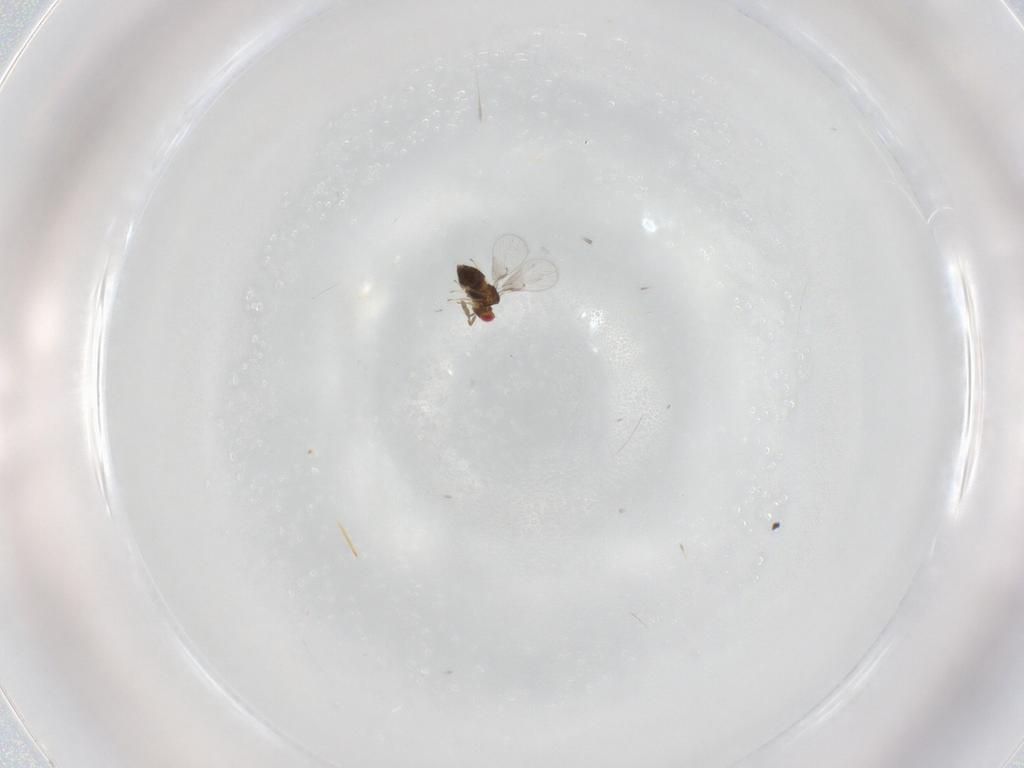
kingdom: Animalia
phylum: Arthropoda
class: Insecta
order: Hymenoptera
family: Trichogrammatidae
